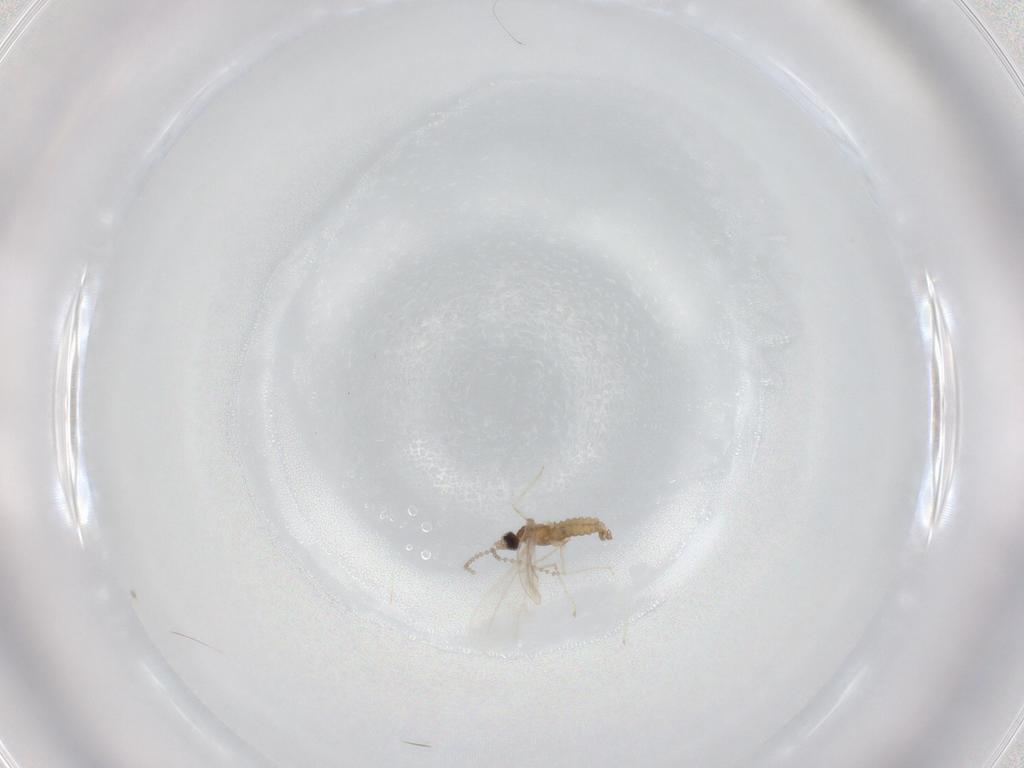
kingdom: Animalia
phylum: Arthropoda
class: Insecta
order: Diptera
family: Cecidomyiidae
